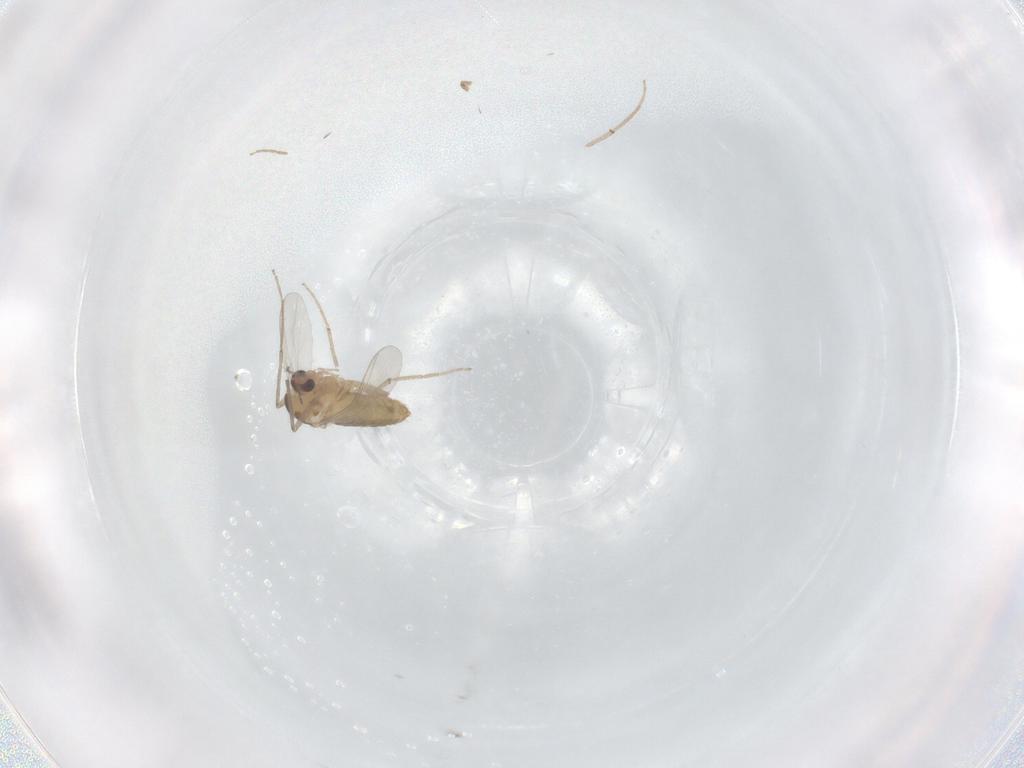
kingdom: Animalia
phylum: Arthropoda
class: Insecta
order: Diptera
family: Chironomidae
